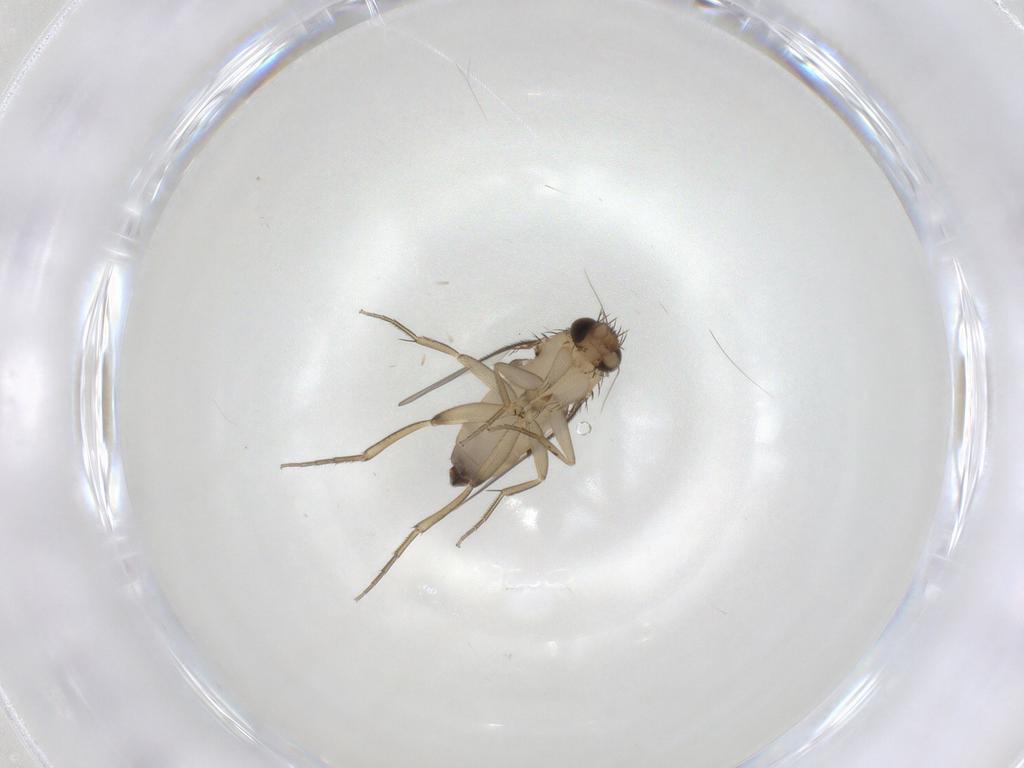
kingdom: Animalia
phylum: Arthropoda
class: Insecta
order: Diptera
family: Phoridae
